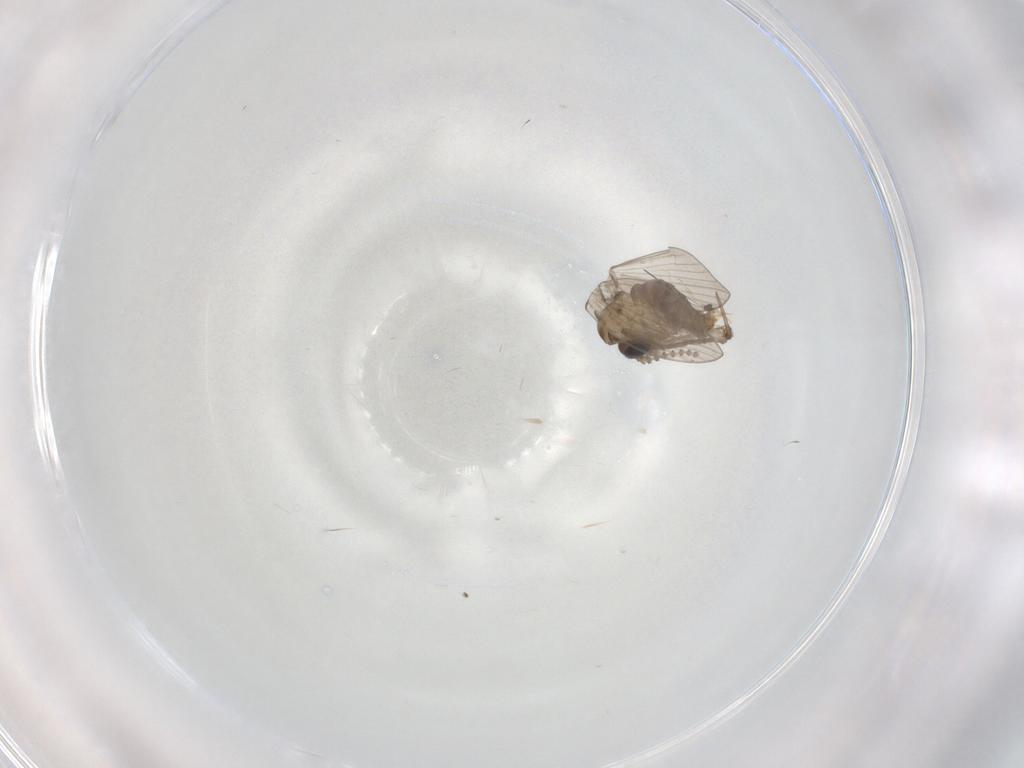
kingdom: Animalia
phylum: Arthropoda
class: Insecta
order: Diptera
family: Psychodidae
